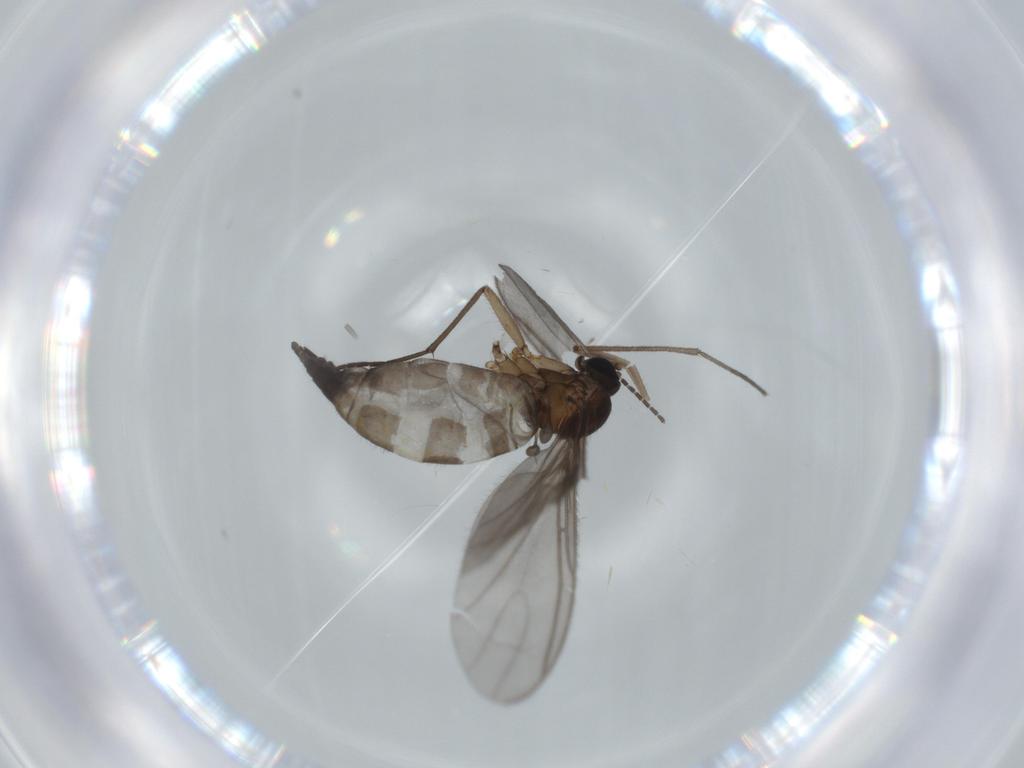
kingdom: Animalia
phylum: Arthropoda
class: Insecta
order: Diptera
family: Sciaridae
